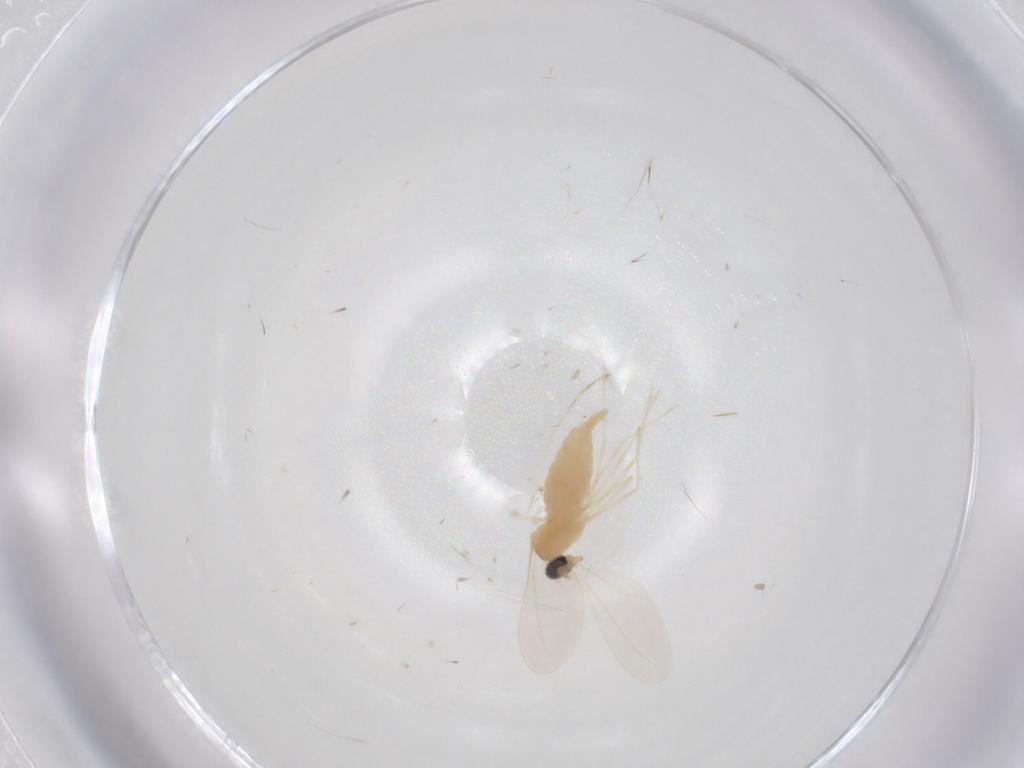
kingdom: Animalia
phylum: Arthropoda
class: Insecta
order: Diptera
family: Cecidomyiidae
